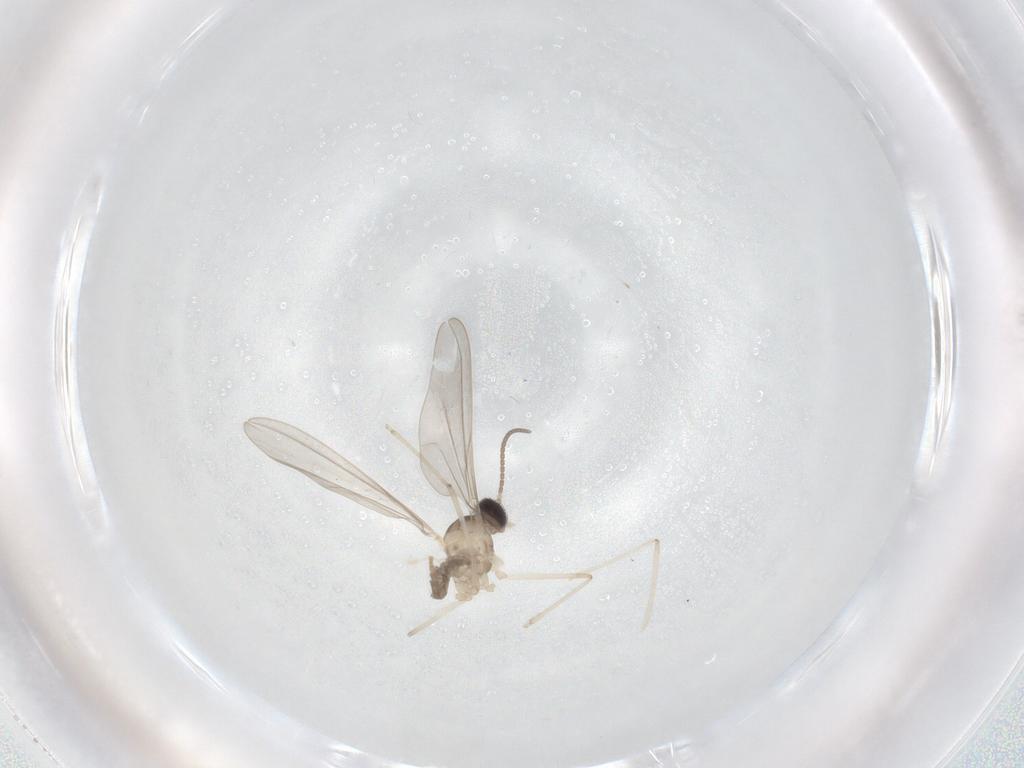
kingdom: Animalia
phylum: Arthropoda
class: Insecta
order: Diptera
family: Cecidomyiidae
